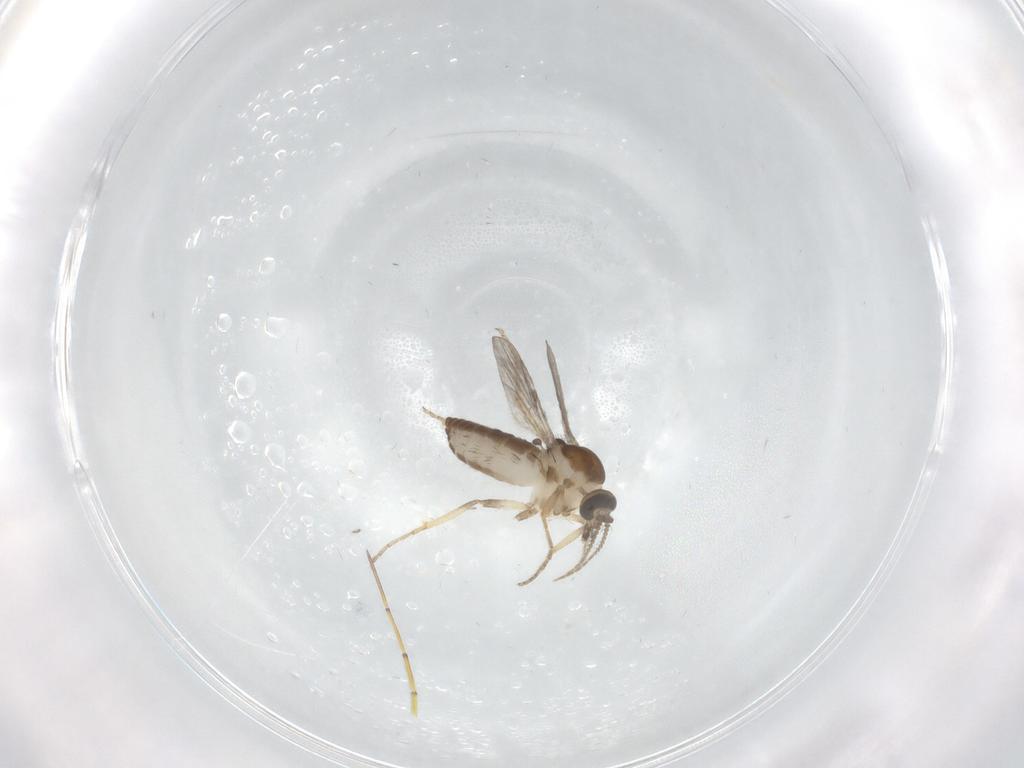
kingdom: Animalia
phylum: Arthropoda
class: Insecta
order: Diptera
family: Ceratopogonidae
